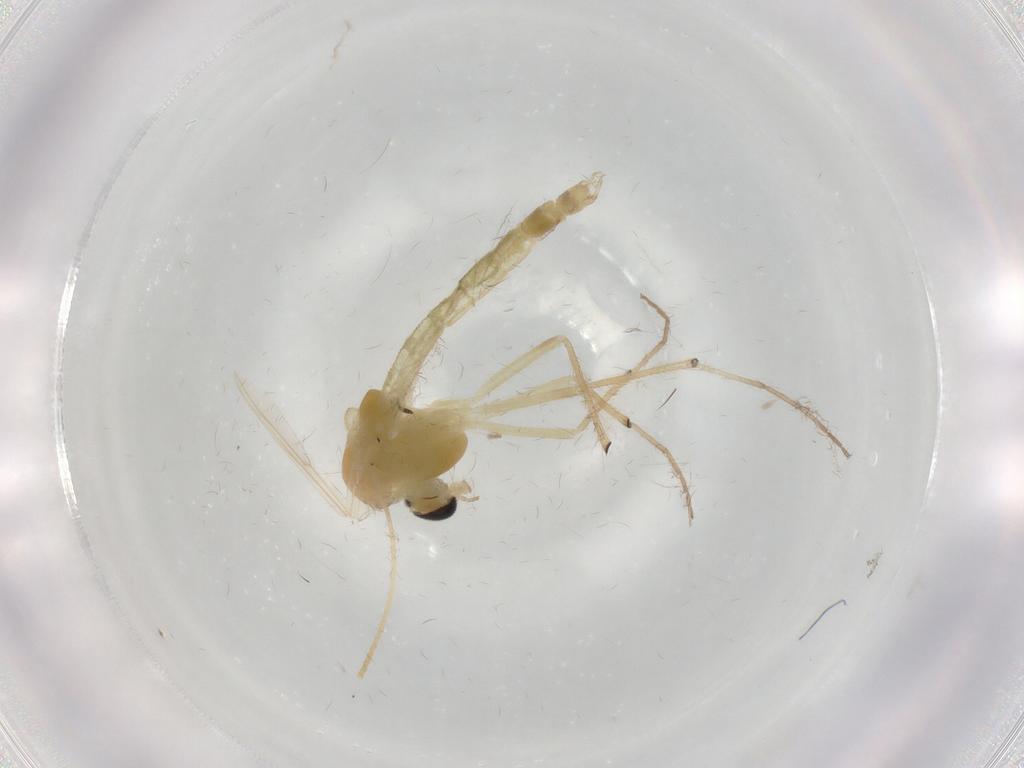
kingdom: Animalia
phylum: Arthropoda
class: Insecta
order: Diptera
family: Chironomidae
